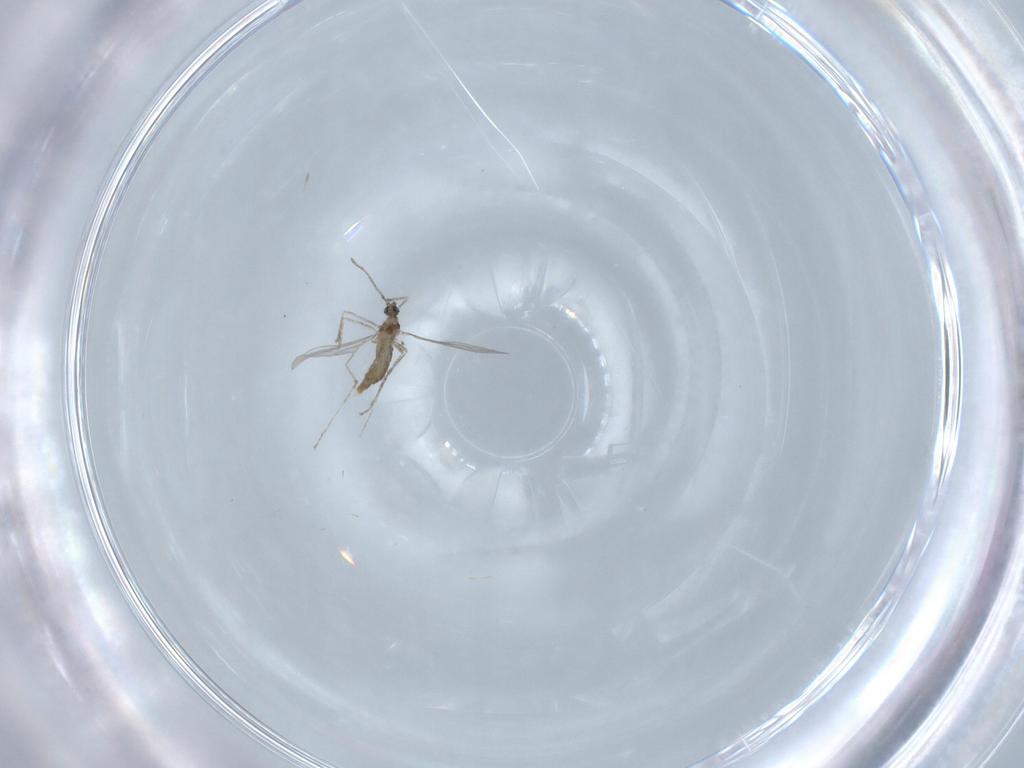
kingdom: Animalia
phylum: Arthropoda
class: Insecta
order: Diptera
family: Cecidomyiidae
